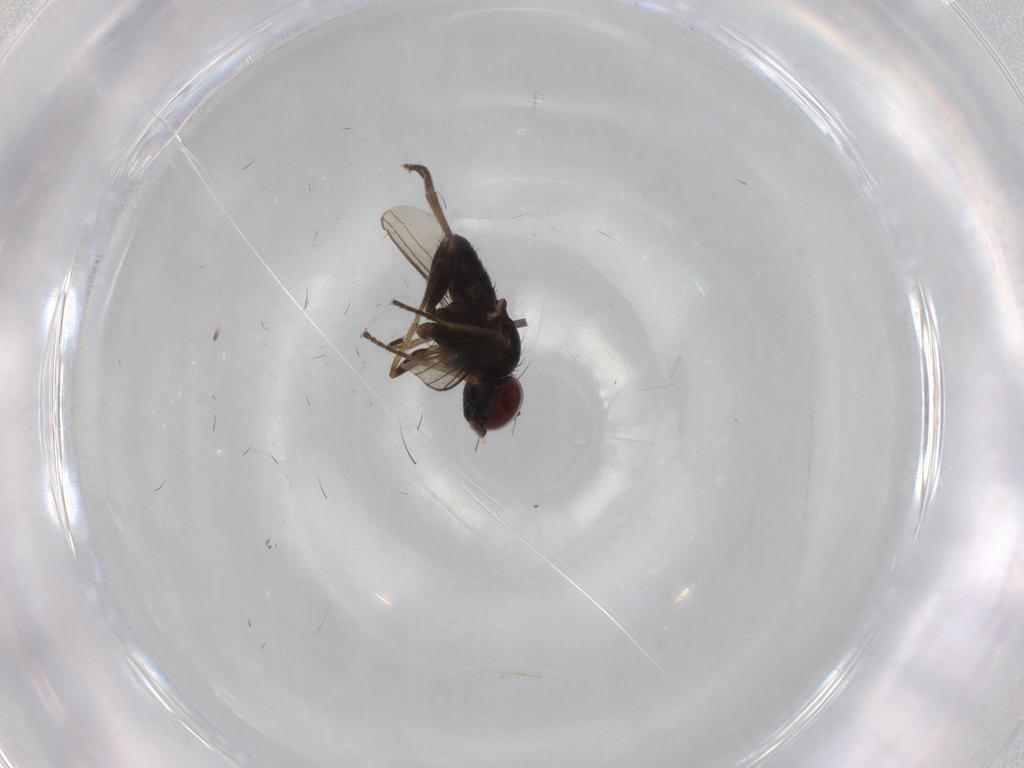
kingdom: Animalia
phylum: Arthropoda
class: Insecta
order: Diptera
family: Dolichopodidae
